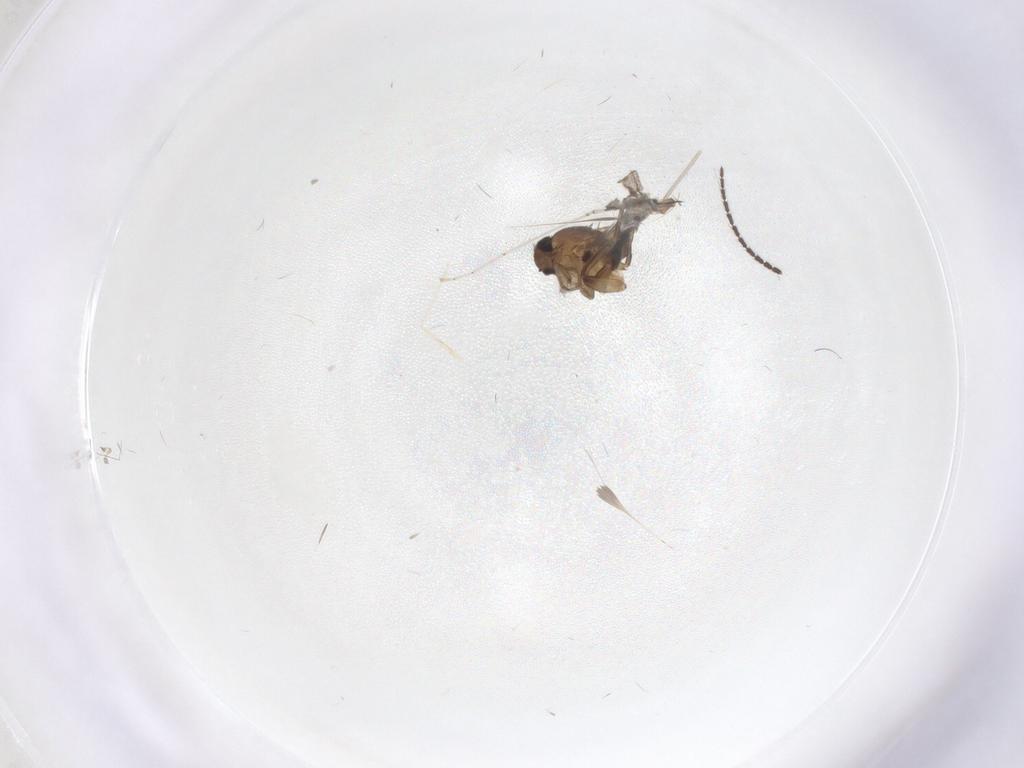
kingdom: Animalia
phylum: Arthropoda
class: Insecta
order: Diptera
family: Sciaridae
